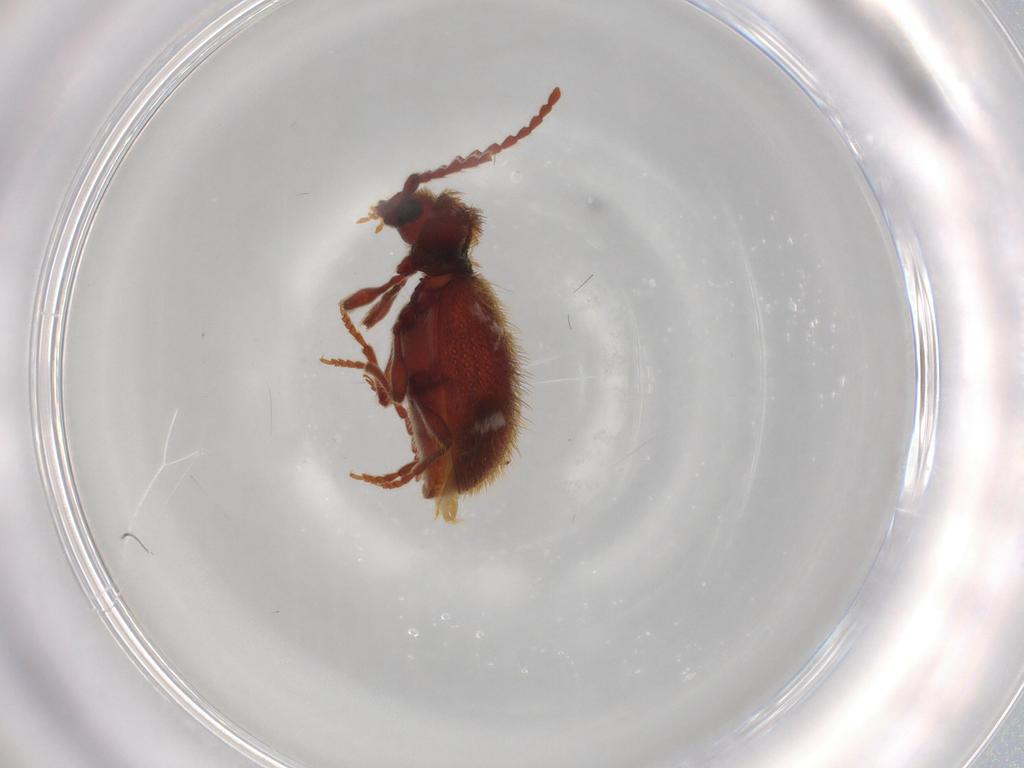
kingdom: Animalia
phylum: Arthropoda
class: Insecta
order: Coleoptera
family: Ptinidae
